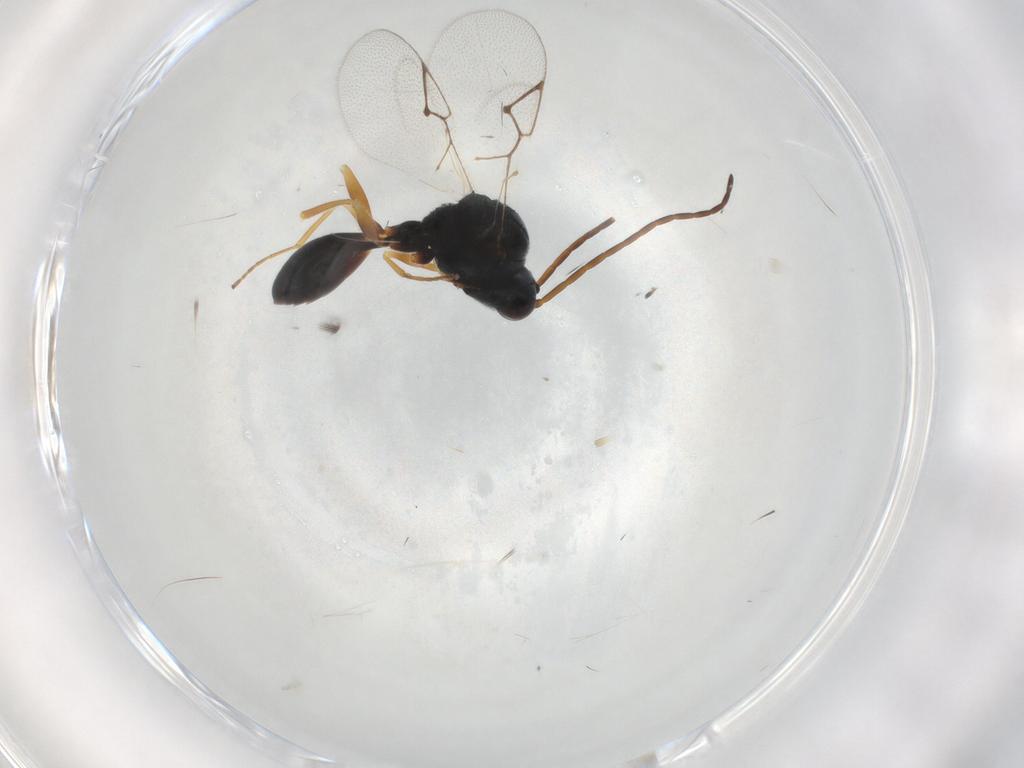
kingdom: Animalia
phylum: Arthropoda
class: Insecta
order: Hymenoptera
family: Figitidae
